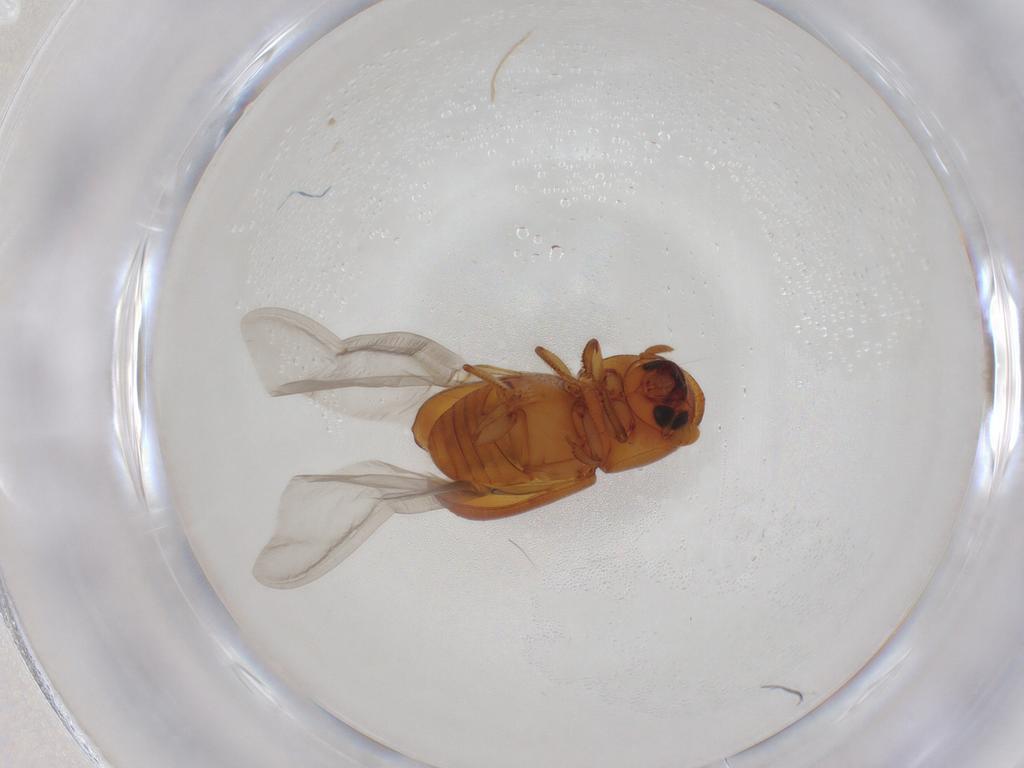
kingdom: Animalia
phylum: Arthropoda
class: Insecta
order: Coleoptera
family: Curculionidae
